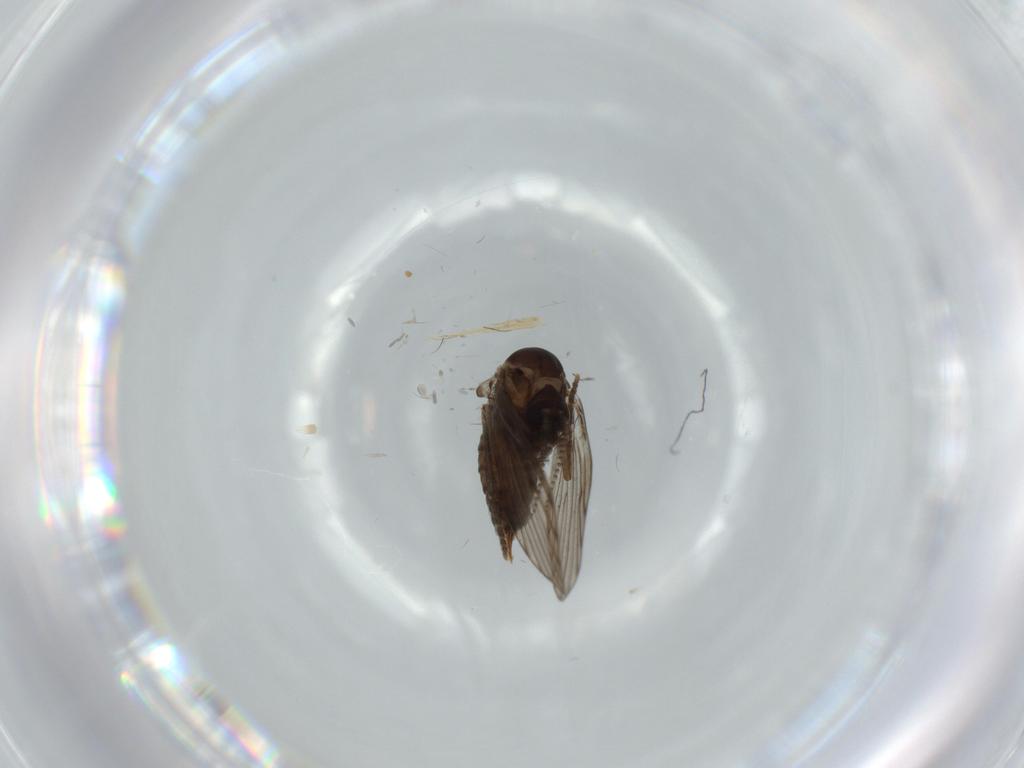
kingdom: Animalia
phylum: Arthropoda
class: Insecta
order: Diptera
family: Psychodidae
